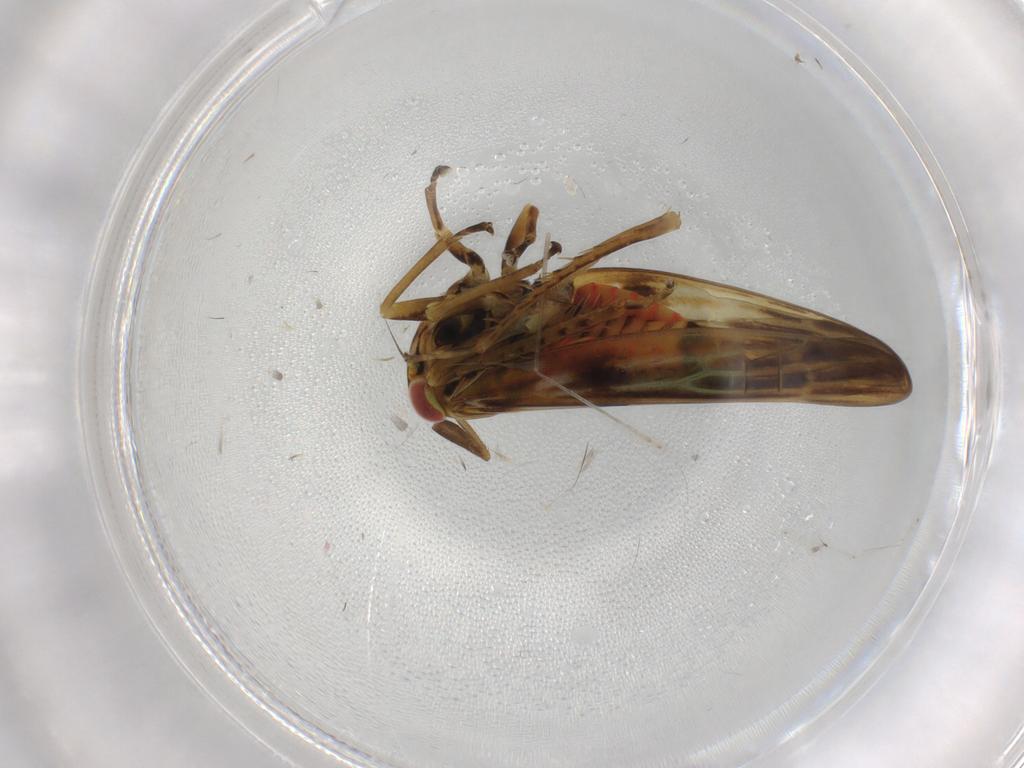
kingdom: Animalia
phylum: Arthropoda
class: Insecta
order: Hemiptera
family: Cicadellidae
